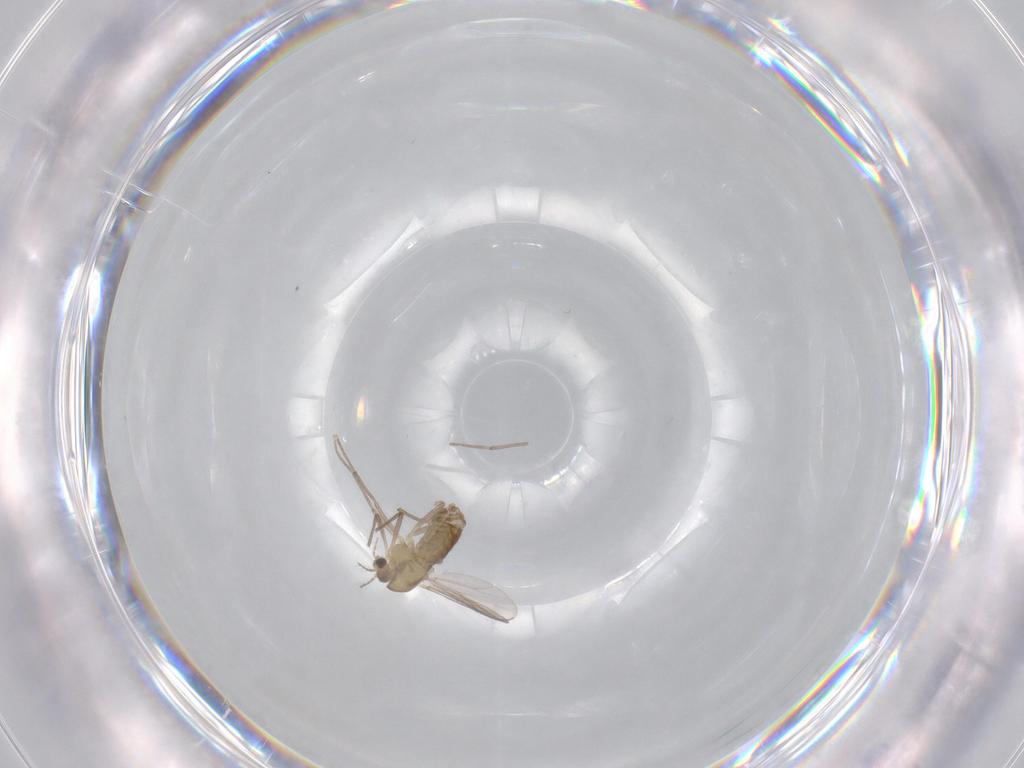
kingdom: Animalia
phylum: Arthropoda
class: Insecta
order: Diptera
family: Chironomidae
